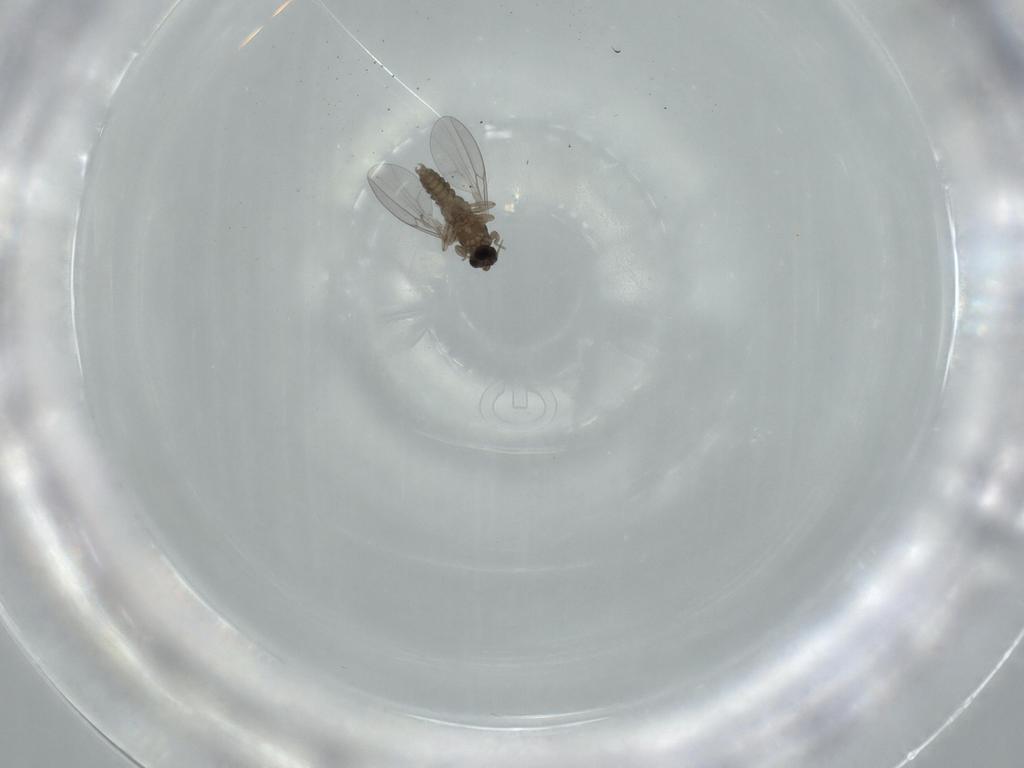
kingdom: Animalia
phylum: Arthropoda
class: Insecta
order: Diptera
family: Cecidomyiidae
